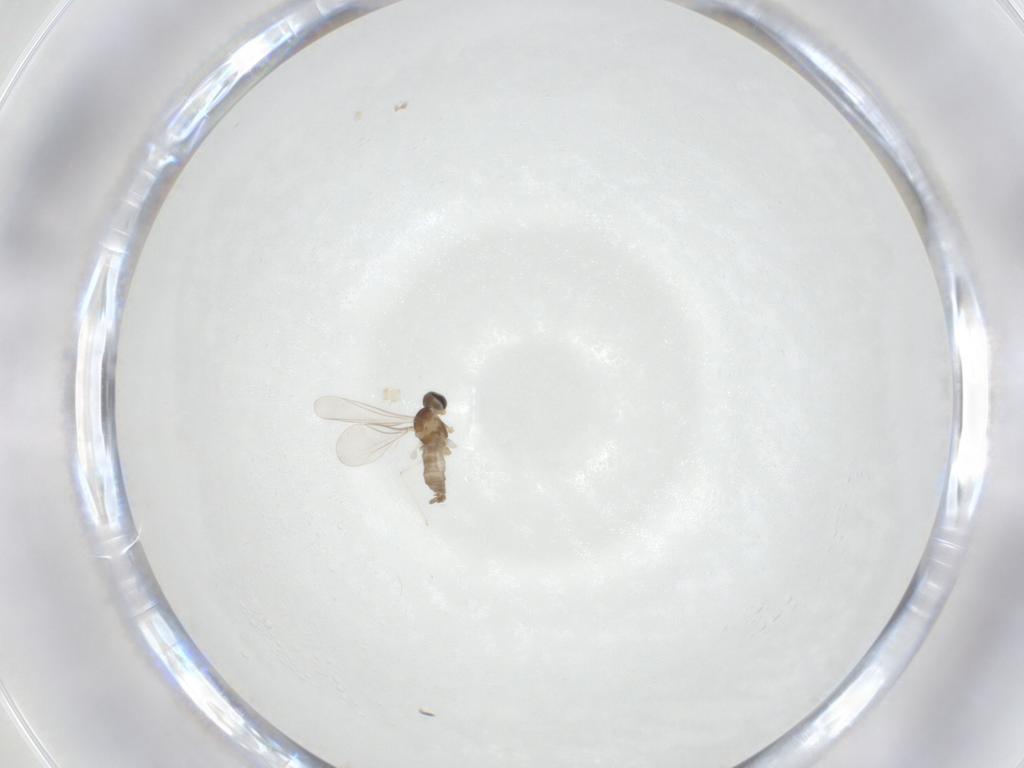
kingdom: Animalia
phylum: Arthropoda
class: Insecta
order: Diptera
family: Cecidomyiidae
